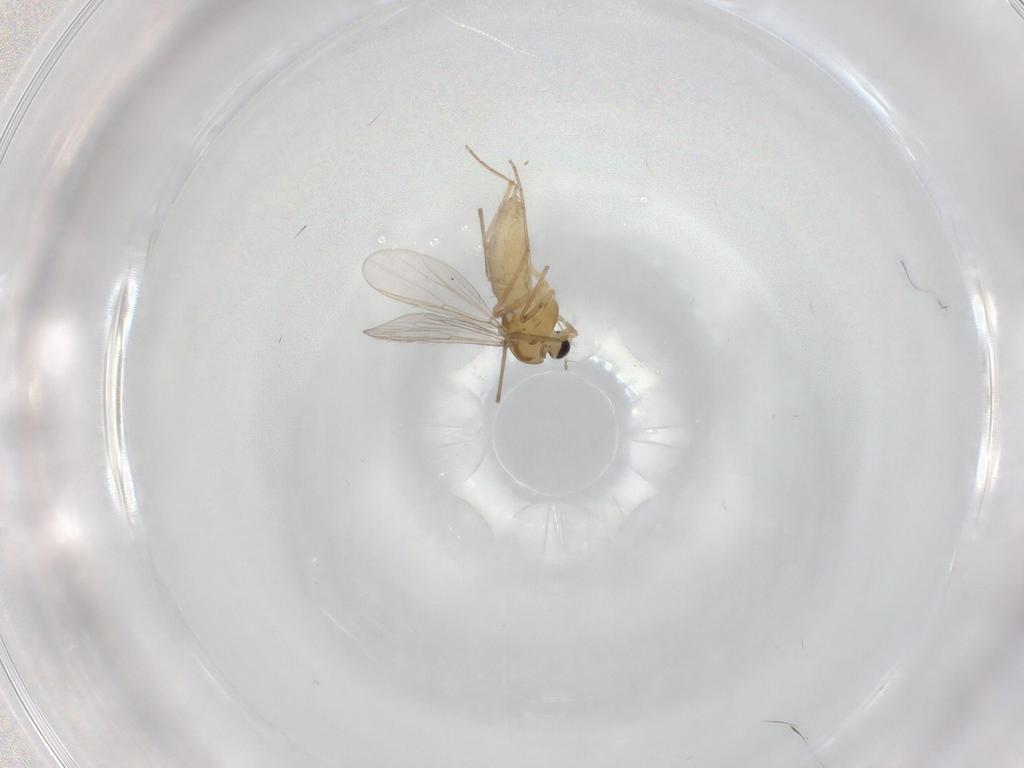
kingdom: Animalia
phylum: Arthropoda
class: Insecta
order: Diptera
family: Chironomidae
